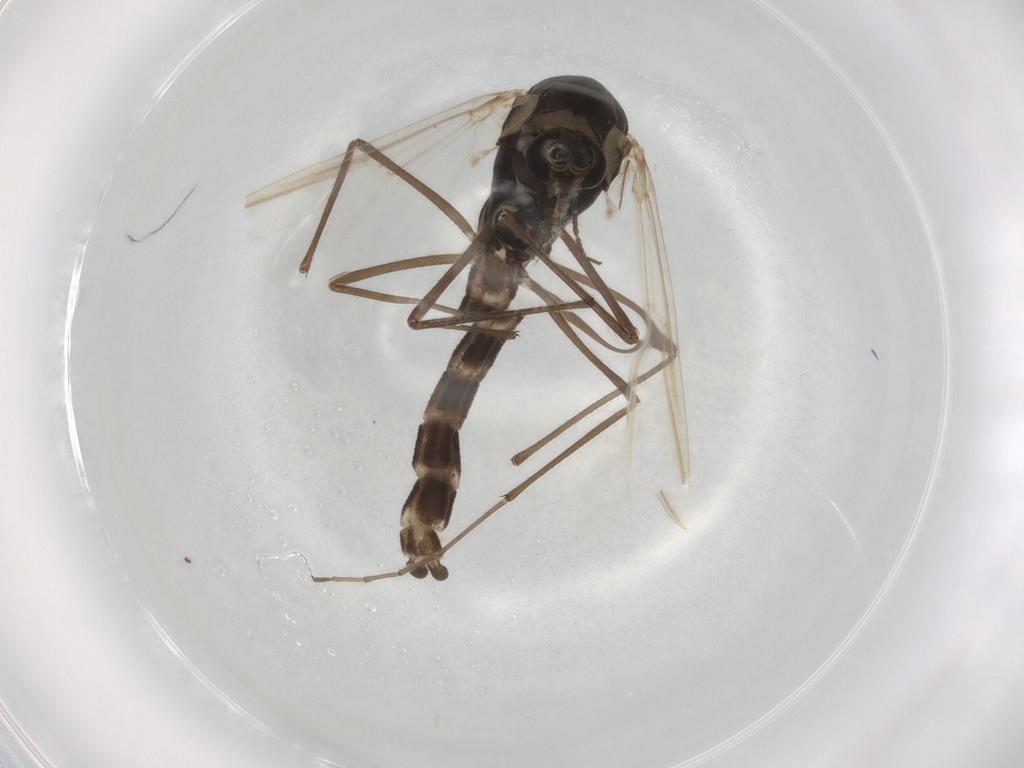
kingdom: Animalia
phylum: Arthropoda
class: Insecta
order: Diptera
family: Chironomidae
